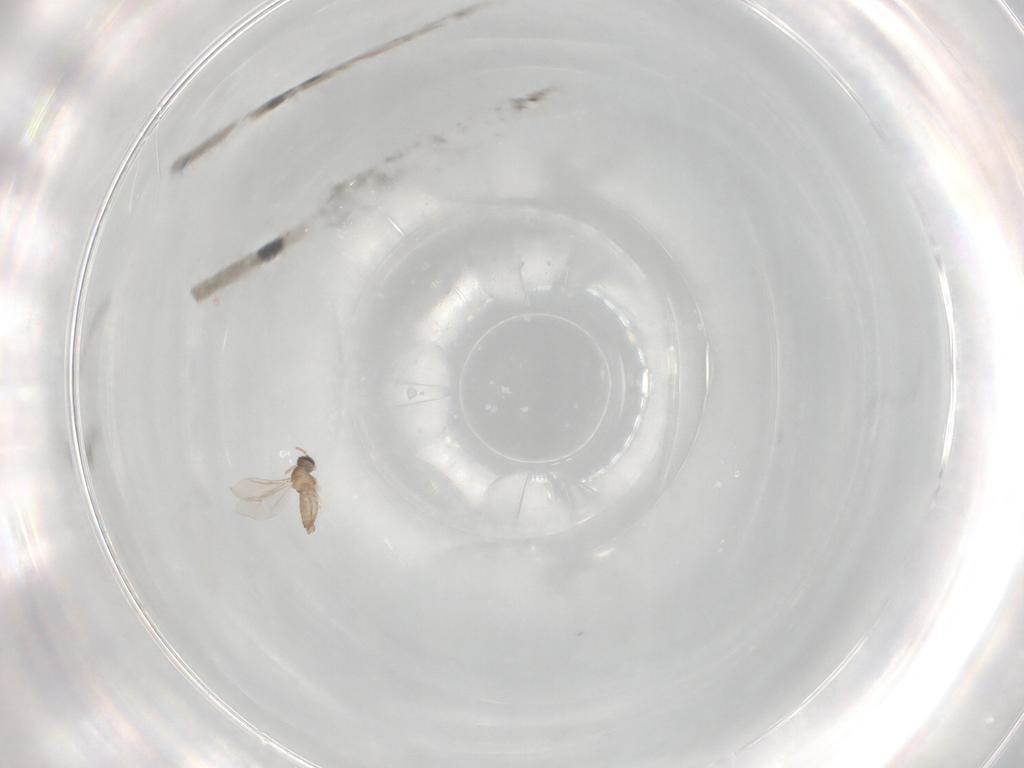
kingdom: Animalia
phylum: Arthropoda
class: Insecta
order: Diptera
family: Cecidomyiidae
